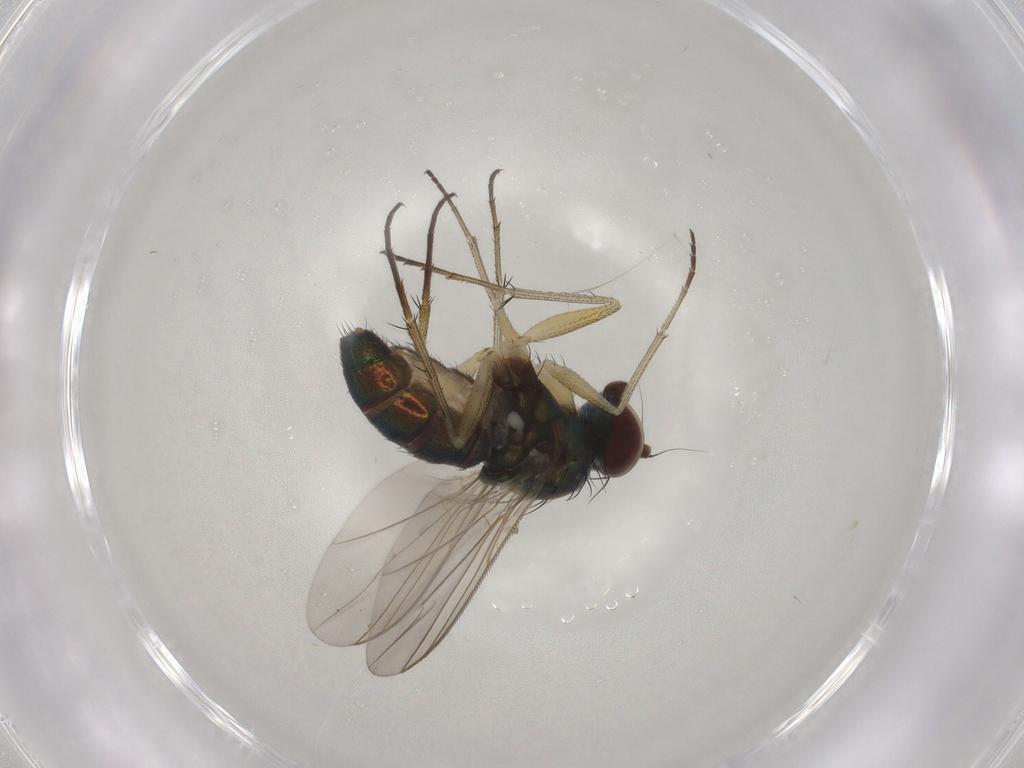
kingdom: Animalia
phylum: Arthropoda
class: Insecta
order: Diptera
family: Dolichopodidae
